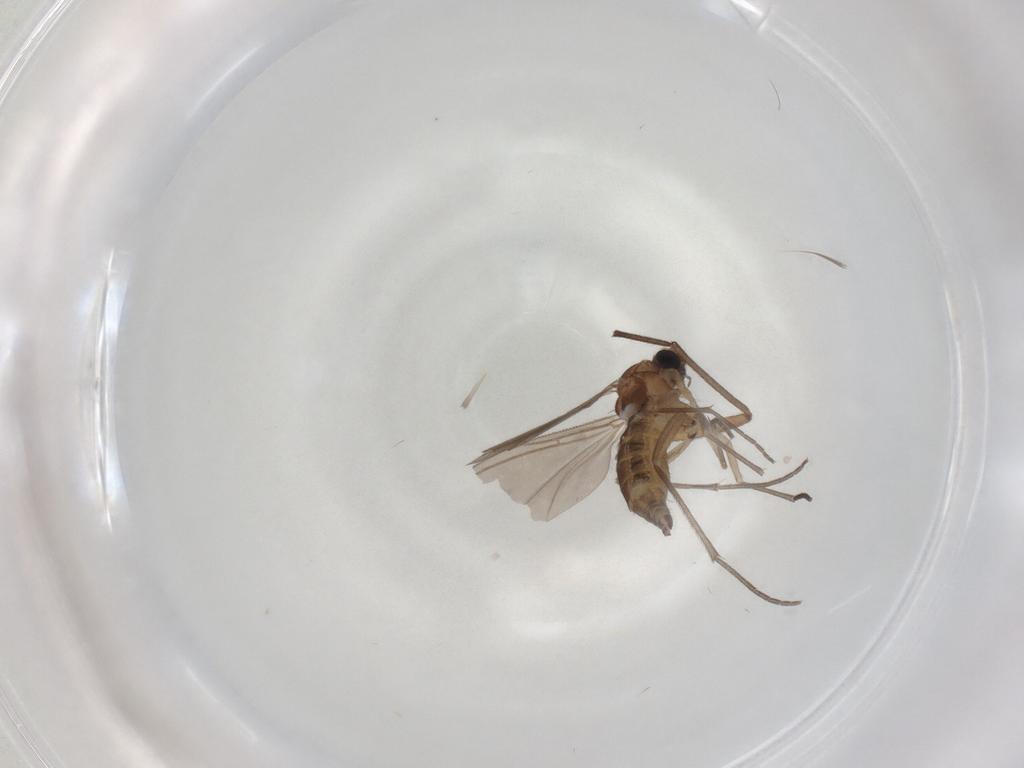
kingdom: Animalia
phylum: Arthropoda
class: Insecta
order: Diptera
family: Sciaridae
